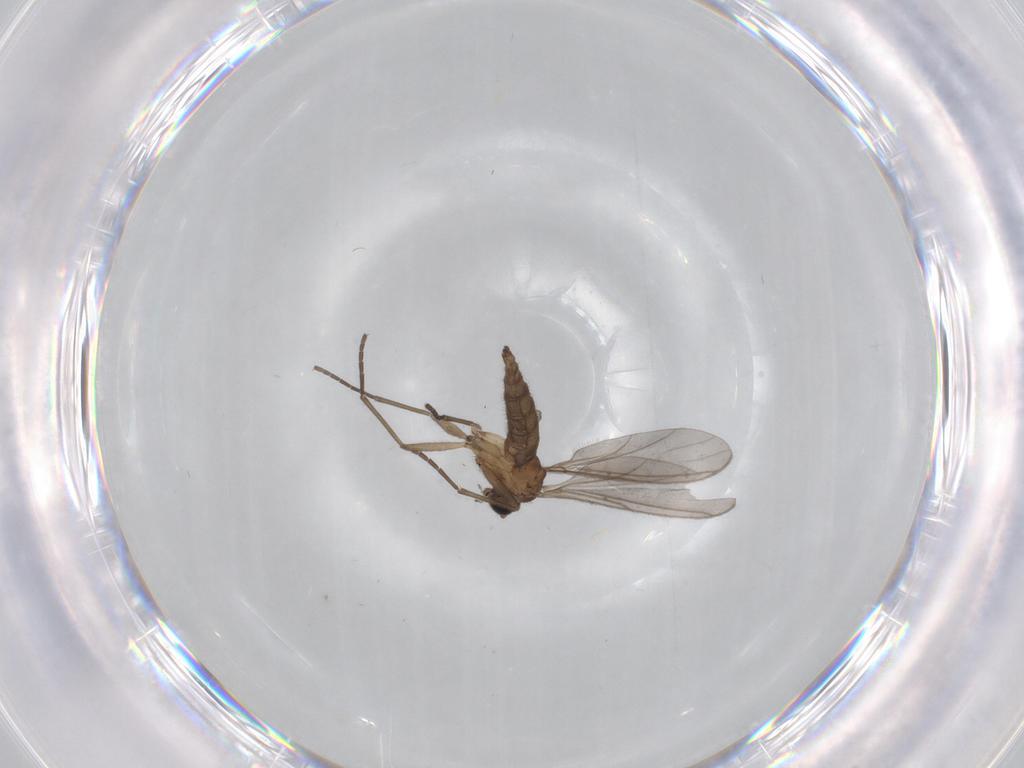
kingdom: Animalia
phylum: Arthropoda
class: Insecta
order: Diptera
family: Sciaridae
